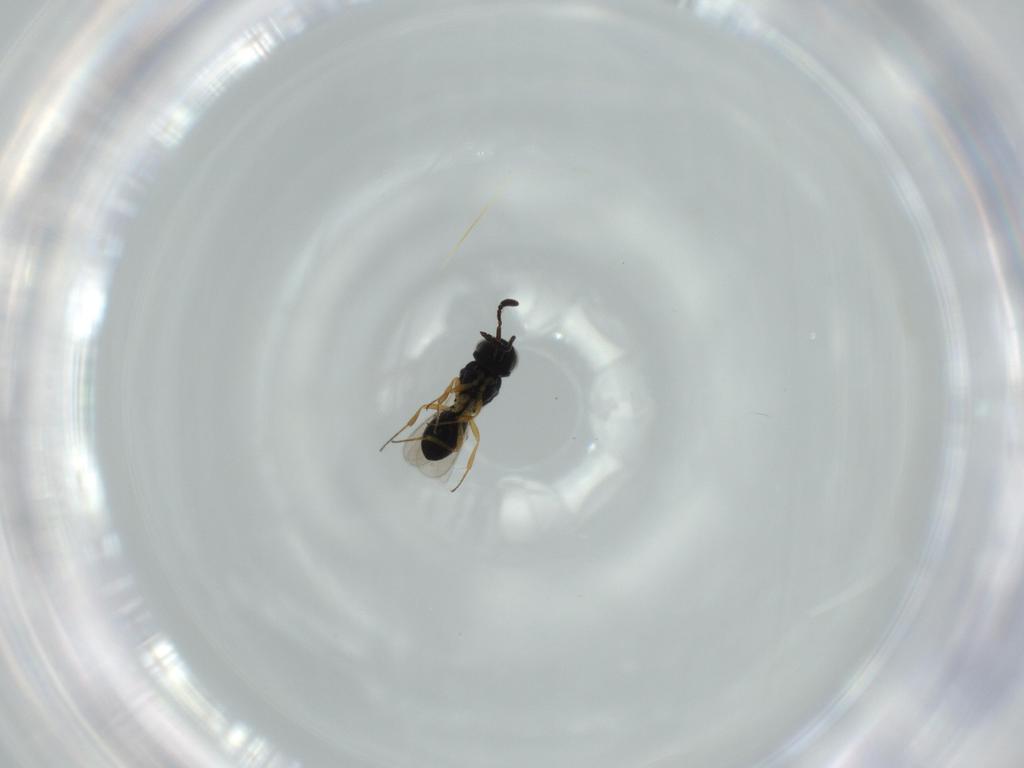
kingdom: Animalia
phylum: Arthropoda
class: Insecta
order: Hymenoptera
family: Scelionidae
